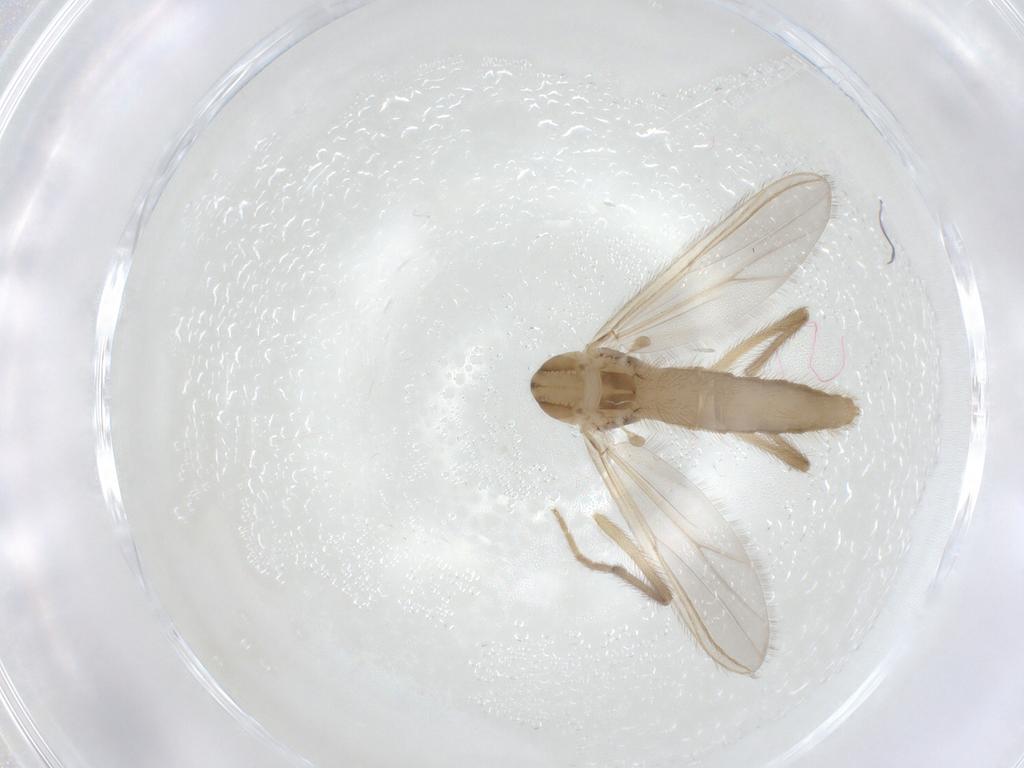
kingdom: Animalia
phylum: Arthropoda
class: Insecta
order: Diptera
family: Chironomidae
